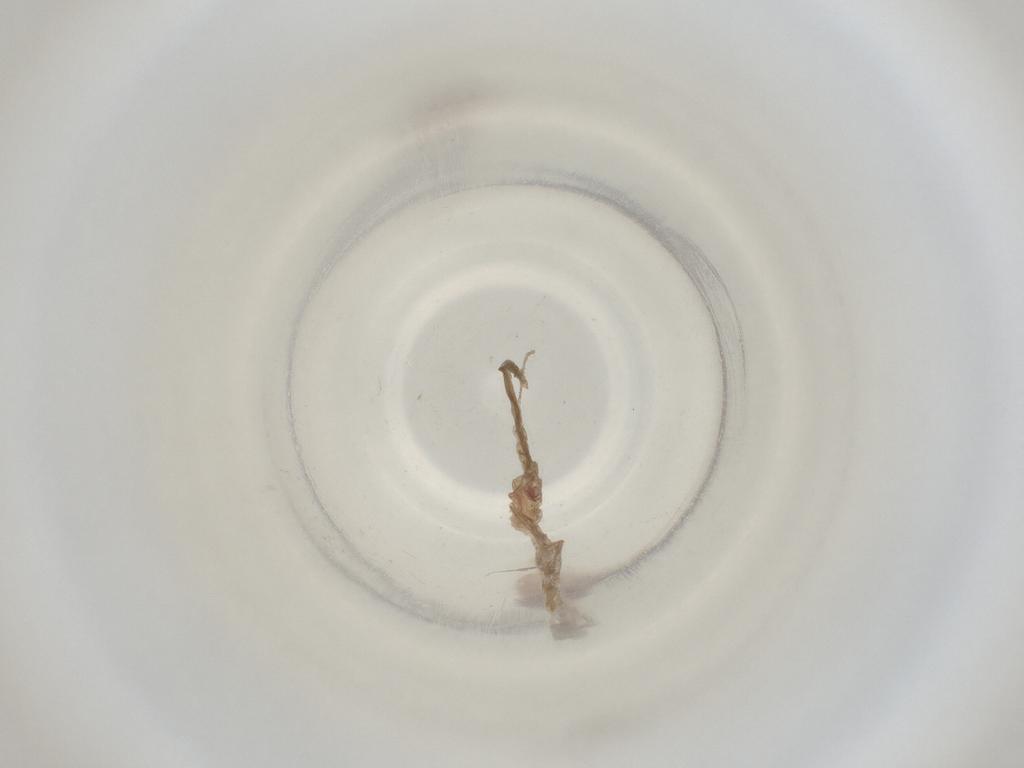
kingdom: Animalia
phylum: Arthropoda
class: Insecta
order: Diptera
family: Cecidomyiidae
